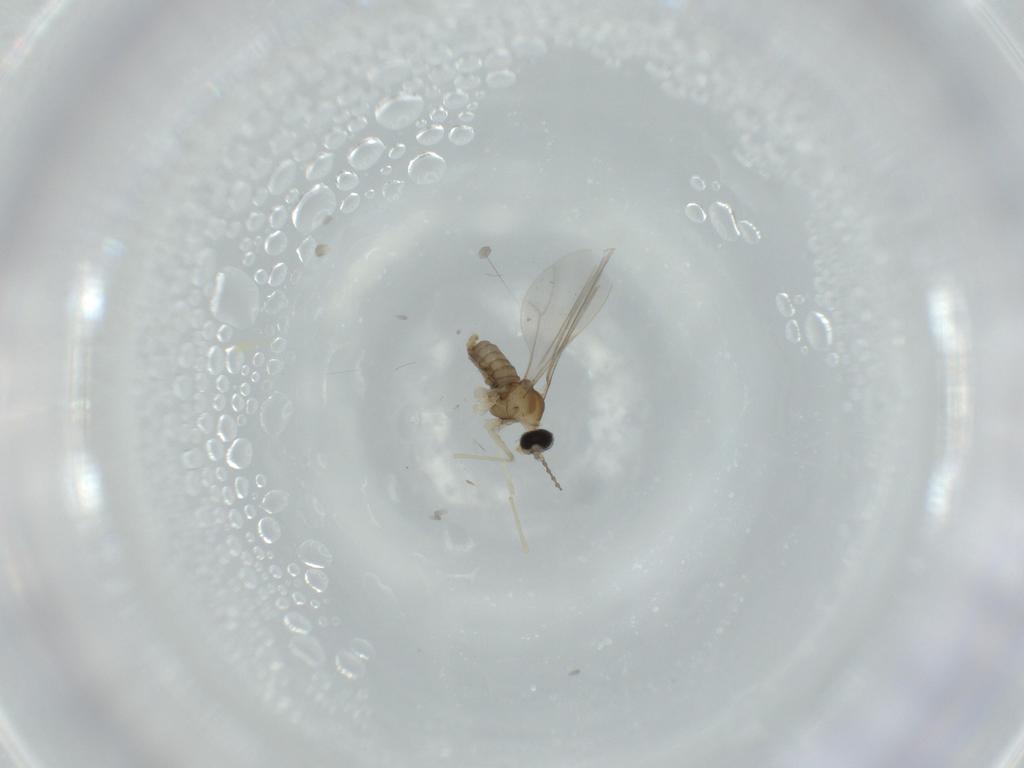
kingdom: Animalia
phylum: Arthropoda
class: Insecta
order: Diptera
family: Cecidomyiidae
